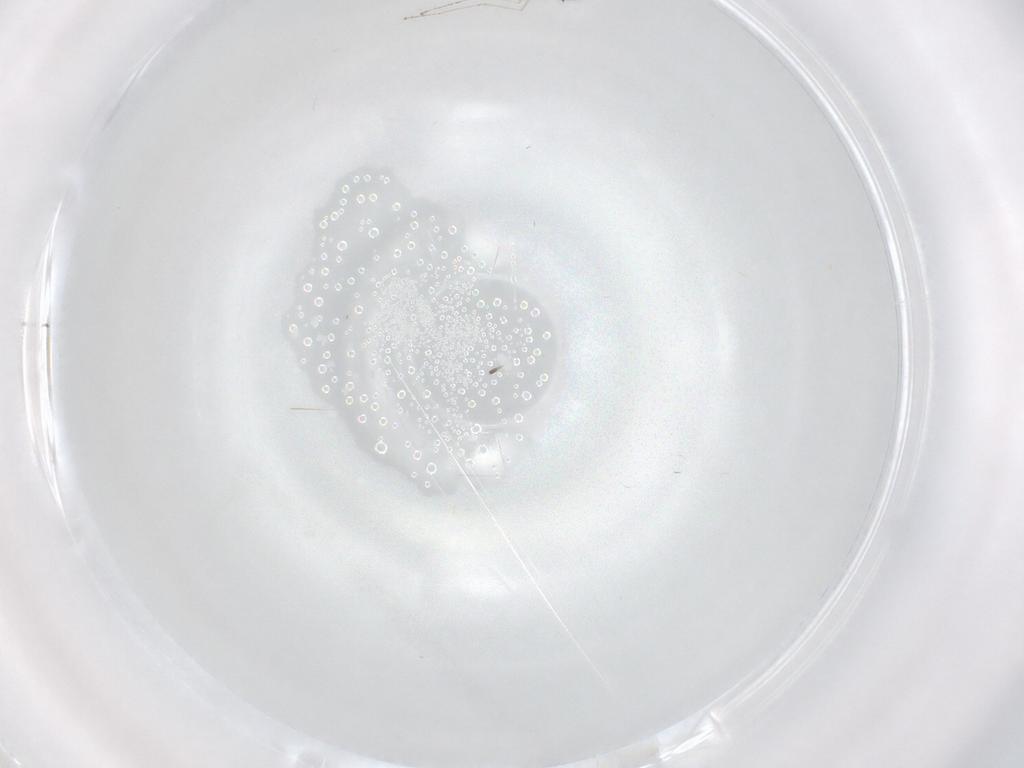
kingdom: Animalia
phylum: Arthropoda
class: Insecta
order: Diptera
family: Cecidomyiidae
